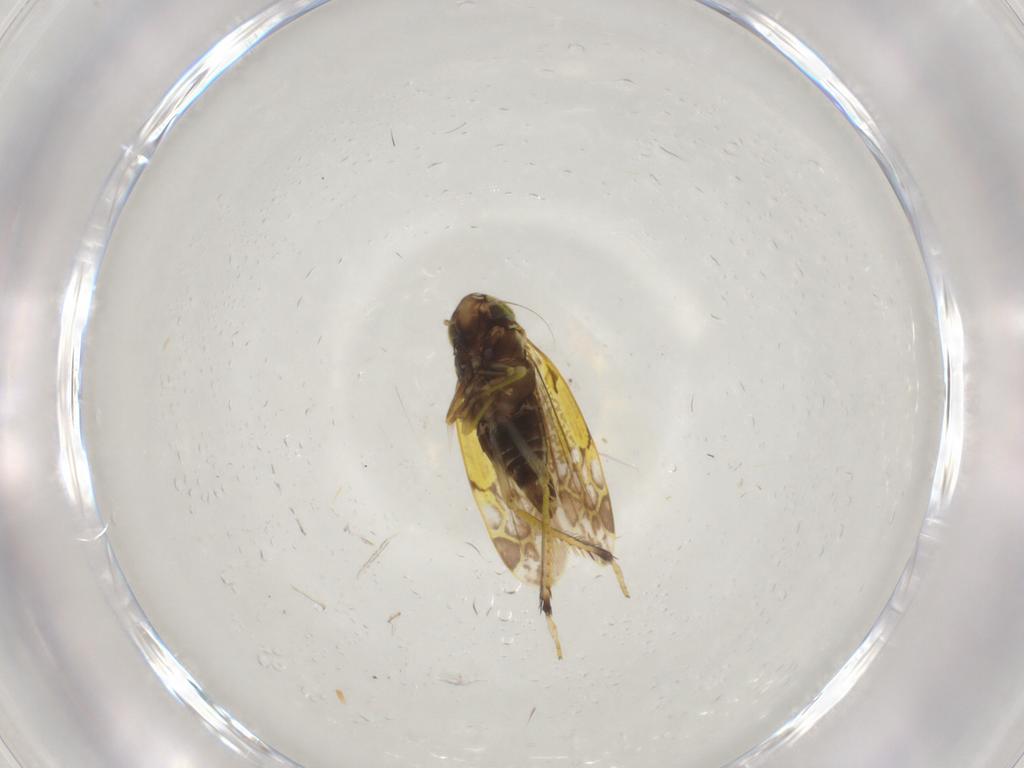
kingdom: Animalia
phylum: Arthropoda
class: Insecta
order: Hemiptera
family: Cicadellidae
